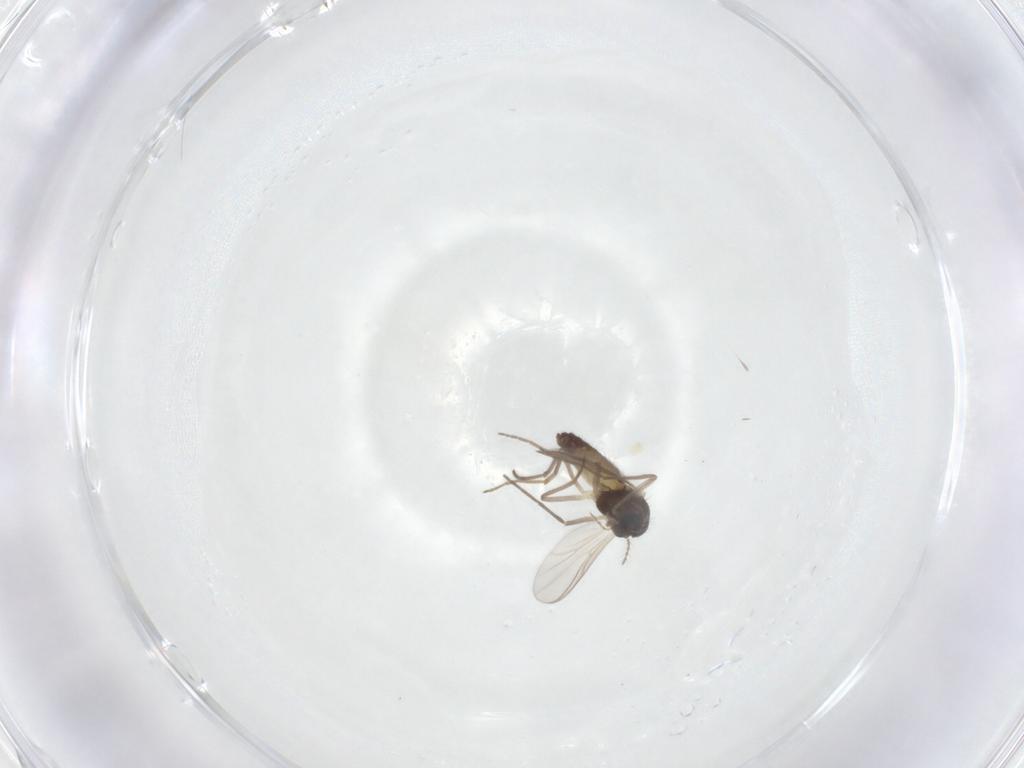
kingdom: Animalia
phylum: Arthropoda
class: Insecta
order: Diptera
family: Chironomidae
